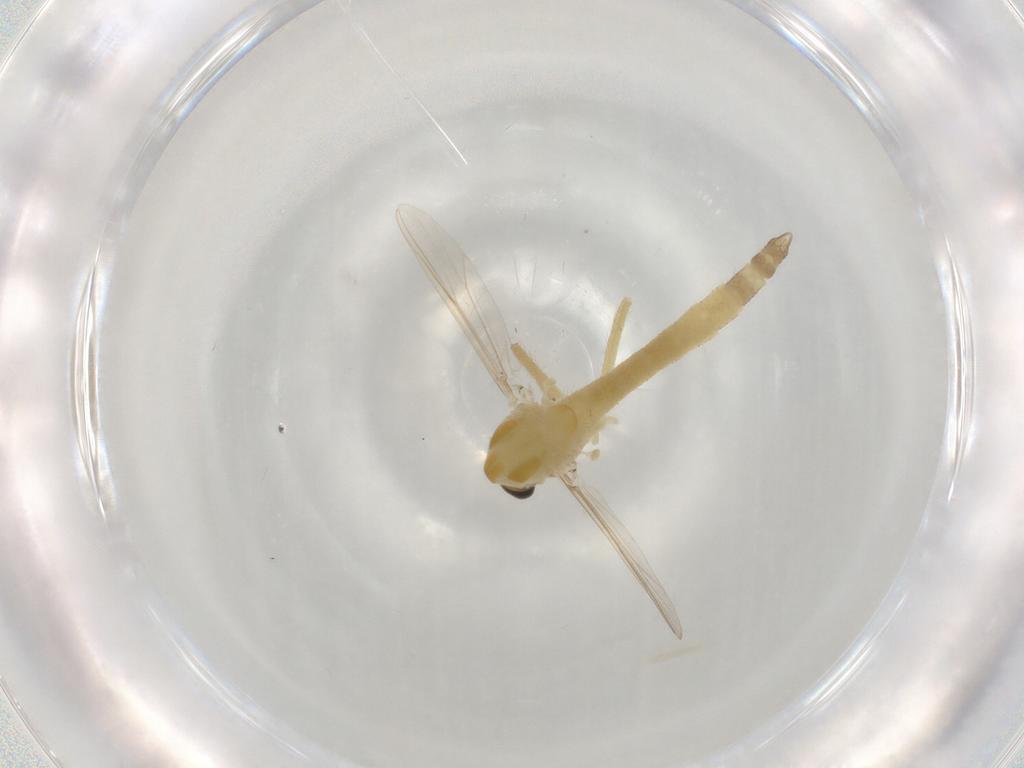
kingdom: Animalia
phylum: Arthropoda
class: Insecta
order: Diptera
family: Chironomidae
